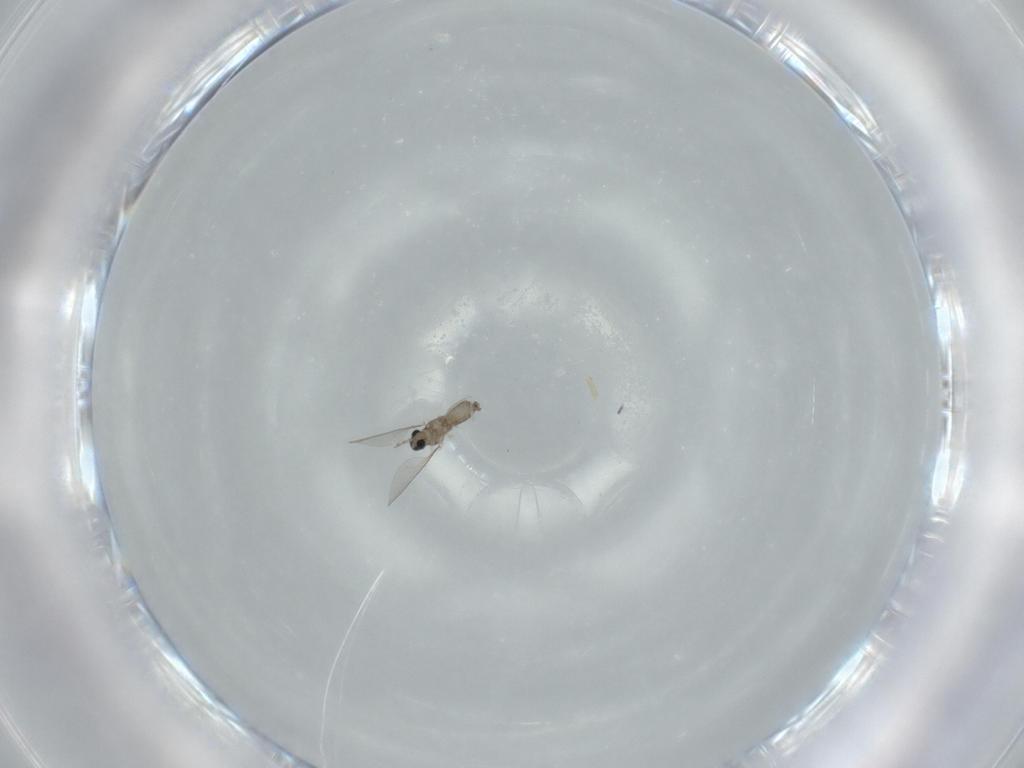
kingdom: Animalia
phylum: Arthropoda
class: Insecta
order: Diptera
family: Cecidomyiidae
